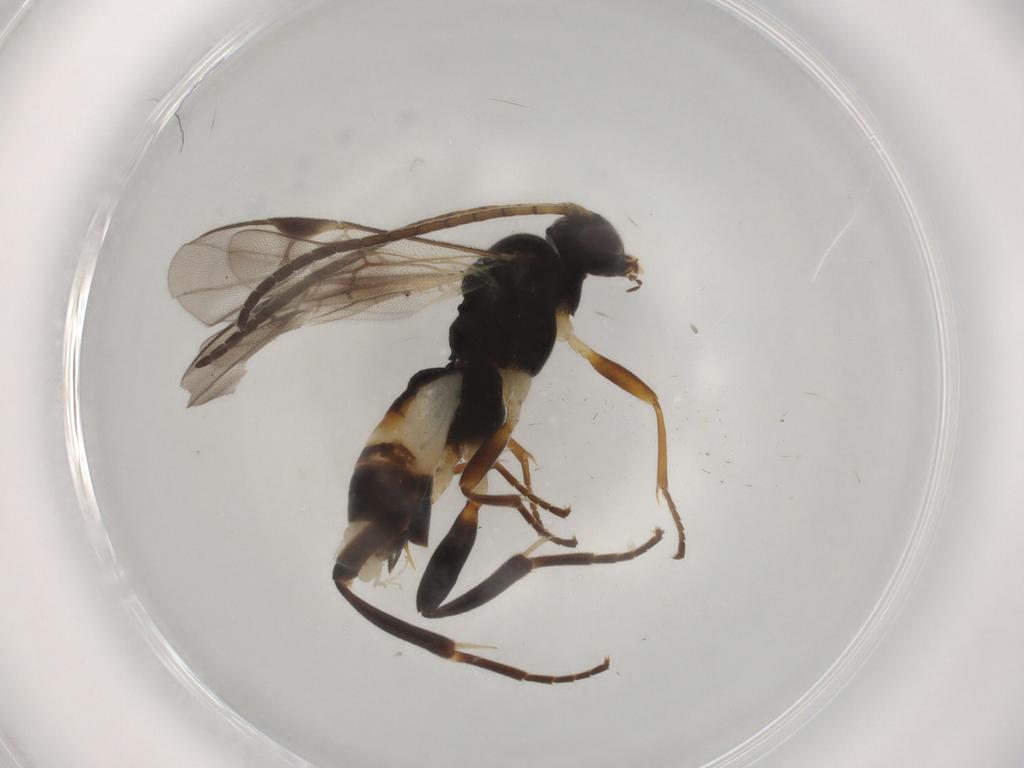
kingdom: Animalia
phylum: Arthropoda
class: Insecta
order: Hymenoptera
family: Braconidae
